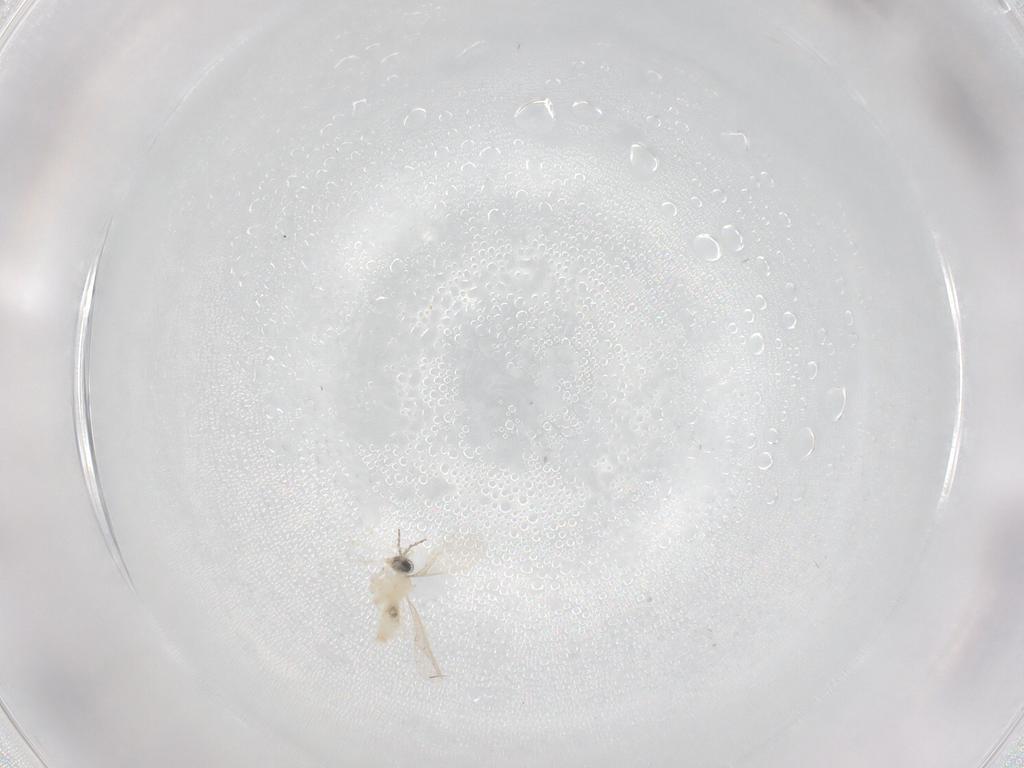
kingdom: Animalia
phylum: Arthropoda
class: Insecta
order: Diptera
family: Cecidomyiidae
